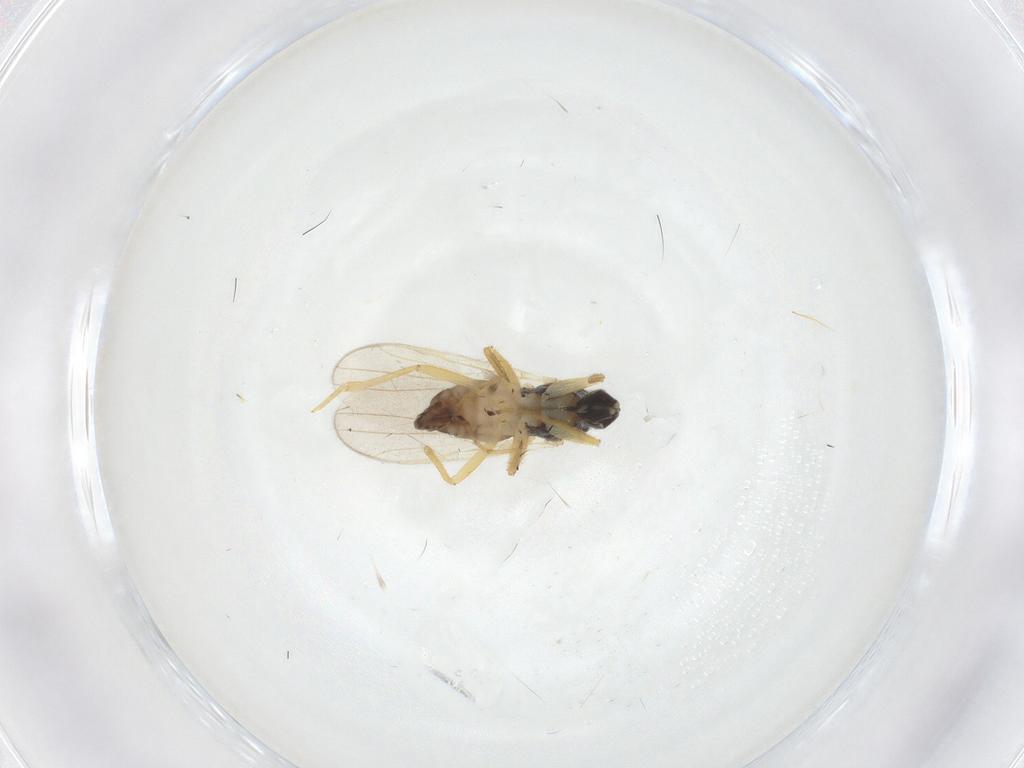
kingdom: Animalia
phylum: Arthropoda
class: Insecta
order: Diptera
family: Hybotidae
